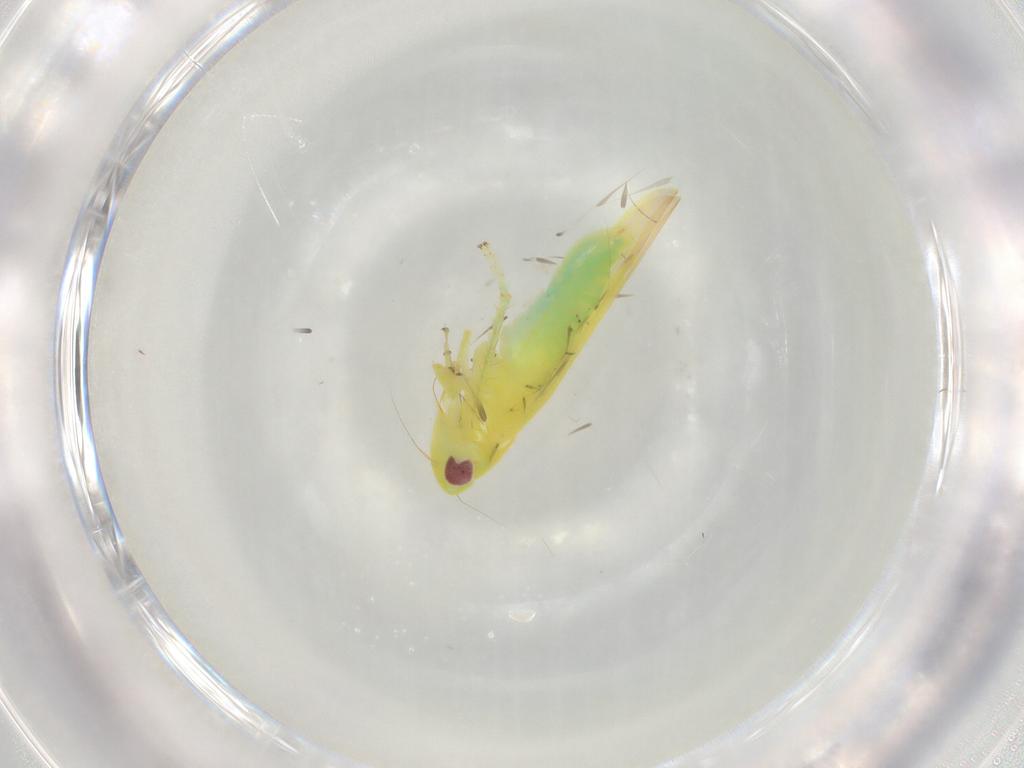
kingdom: Animalia
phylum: Arthropoda
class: Insecta
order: Hemiptera
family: Cicadellidae
